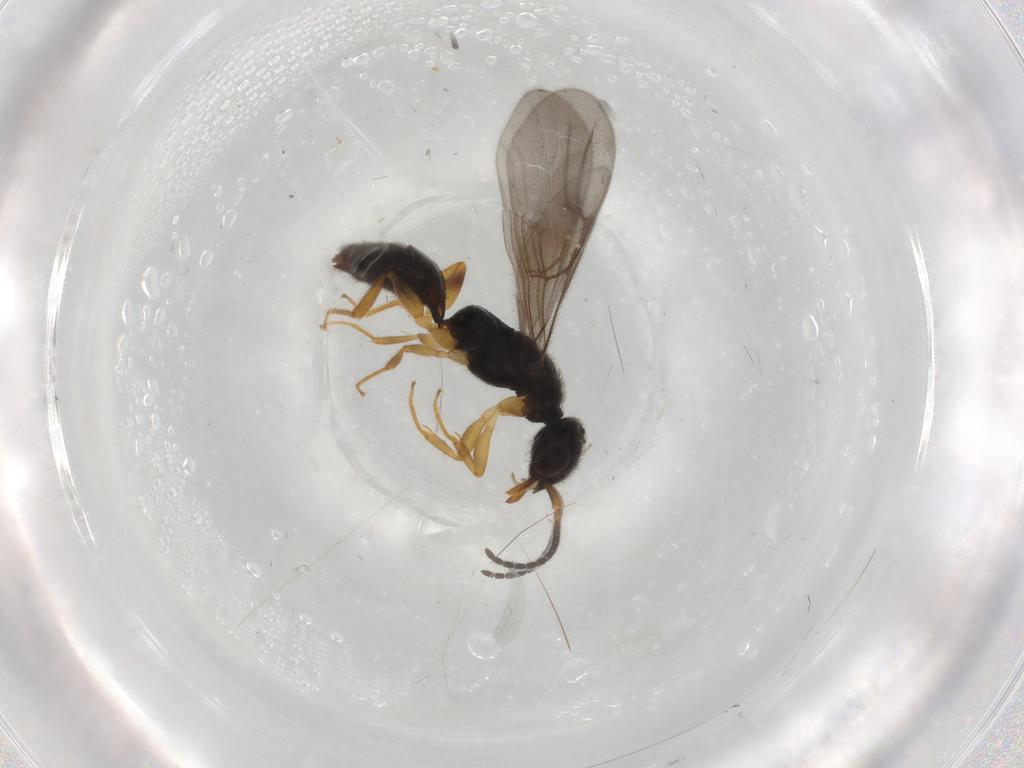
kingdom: Animalia
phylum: Arthropoda
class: Insecta
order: Hymenoptera
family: Bethylidae
